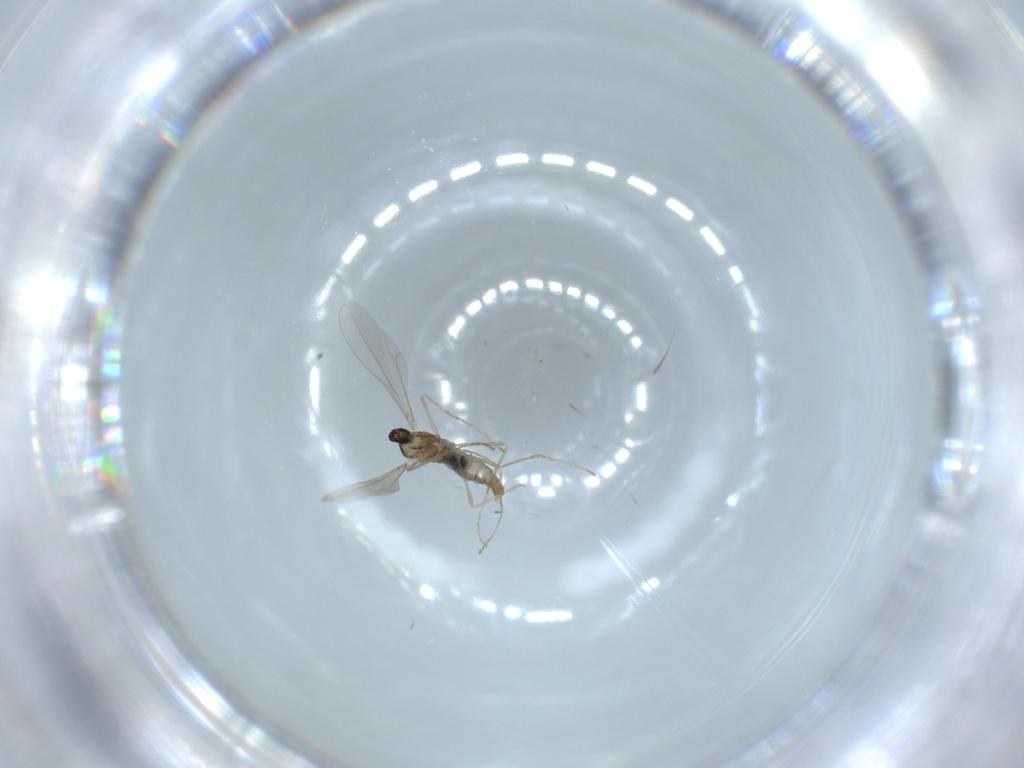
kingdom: Animalia
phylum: Arthropoda
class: Insecta
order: Diptera
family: Cecidomyiidae
